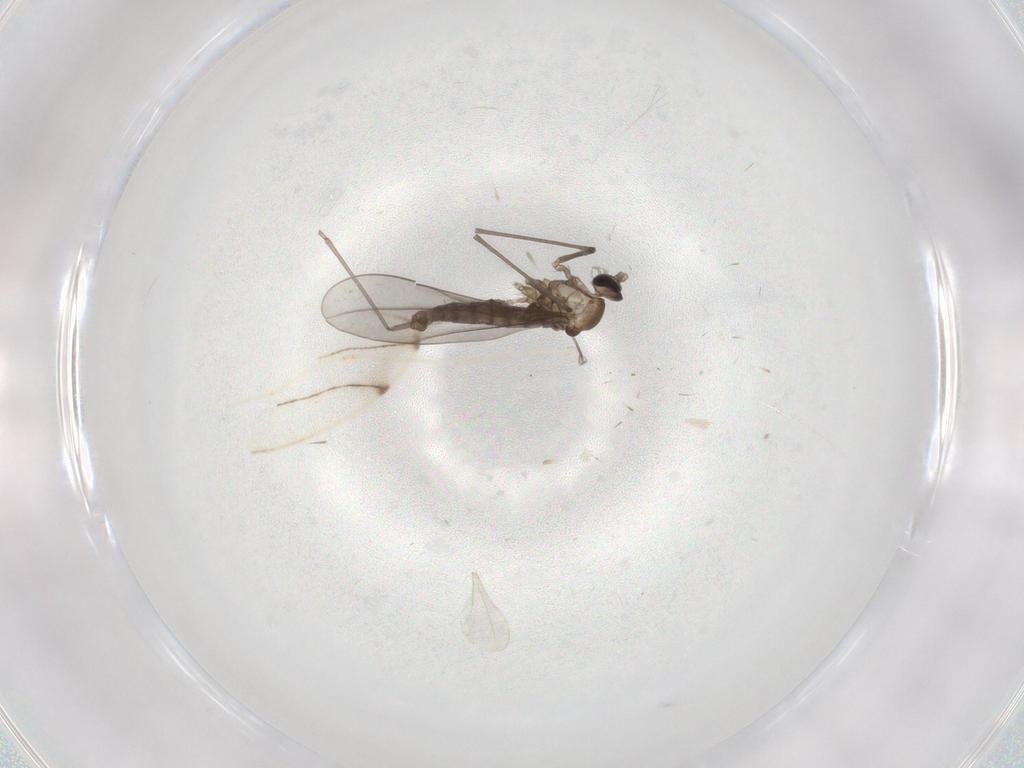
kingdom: Animalia
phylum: Arthropoda
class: Insecta
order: Diptera
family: Cecidomyiidae
